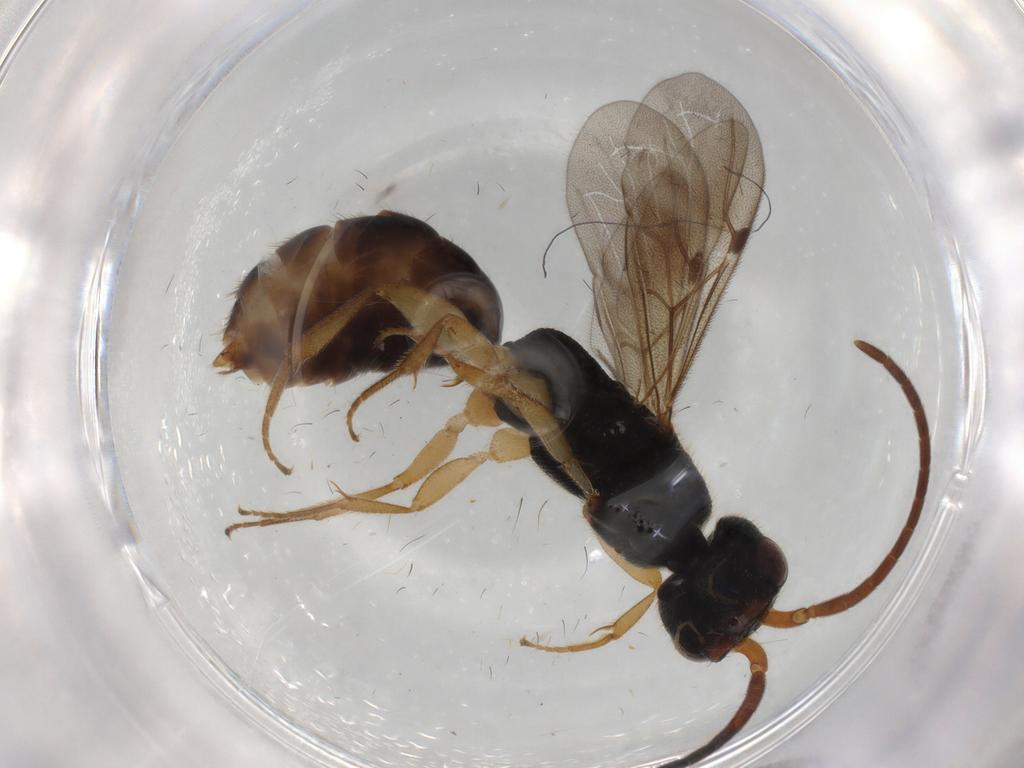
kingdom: Animalia
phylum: Arthropoda
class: Insecta
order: Hymenoptera
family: Bethylidae
